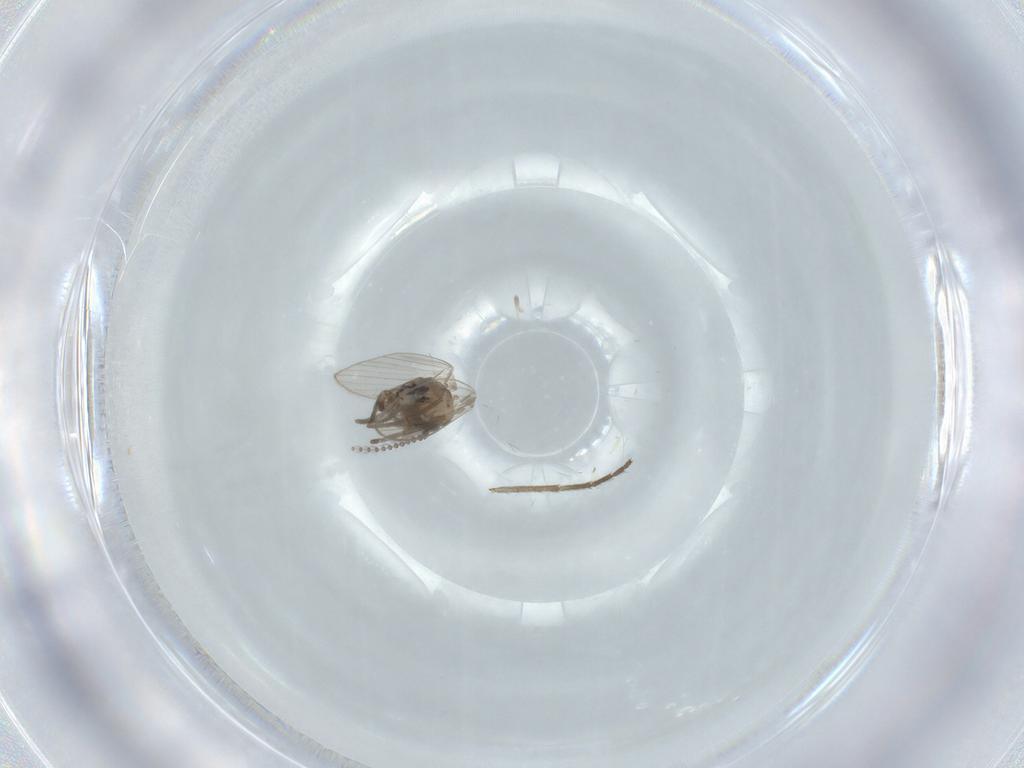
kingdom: Animalia
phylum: Arthropoda
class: Insecta
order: Diptera
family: Psychodidae
